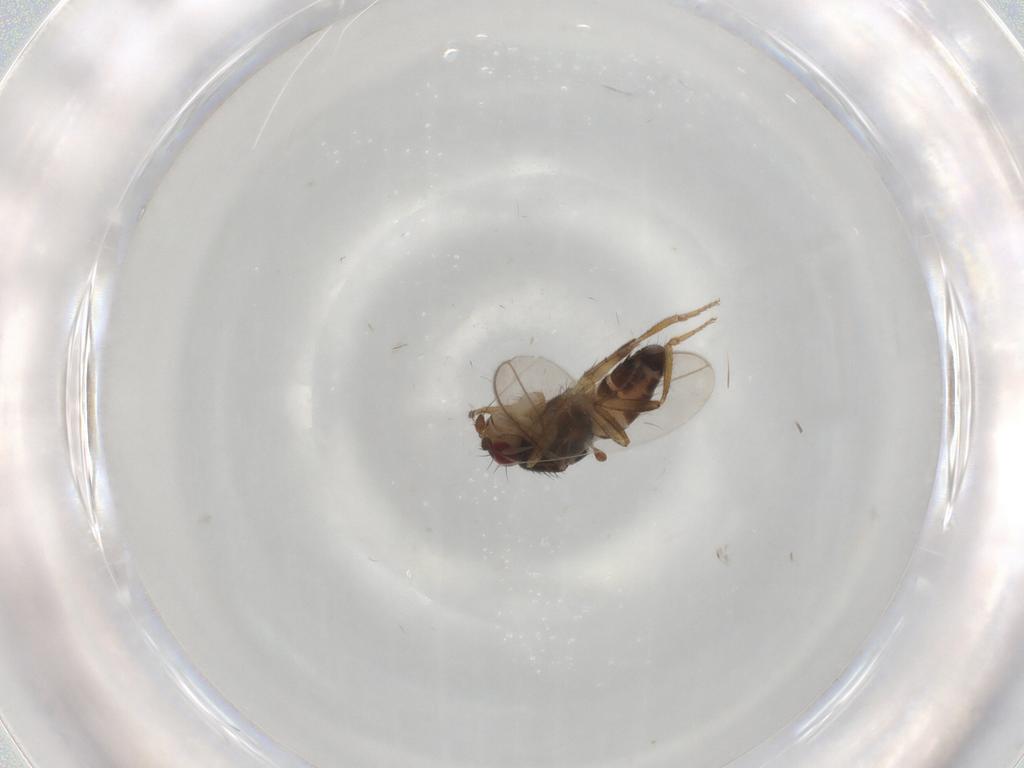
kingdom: Animalia
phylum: Arthropoda
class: Insecta
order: Diptera
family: Sphaeroceridae
